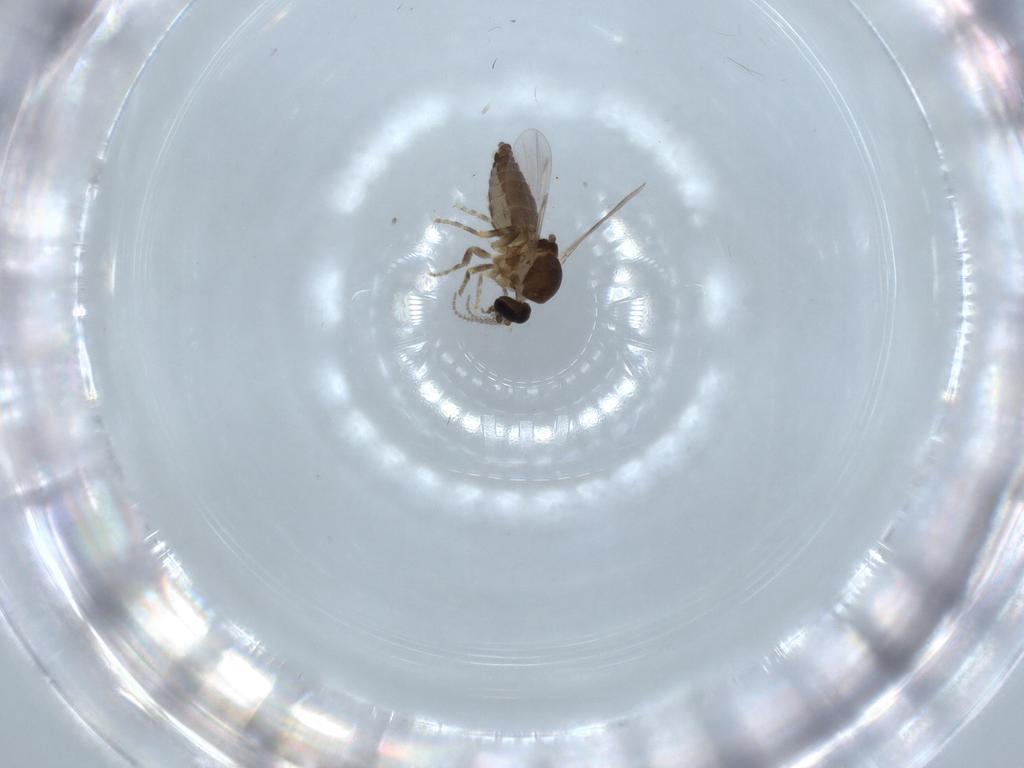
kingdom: Animalia
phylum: Arthropoda
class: Insecta
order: Diptera
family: Ceratopogonidae
